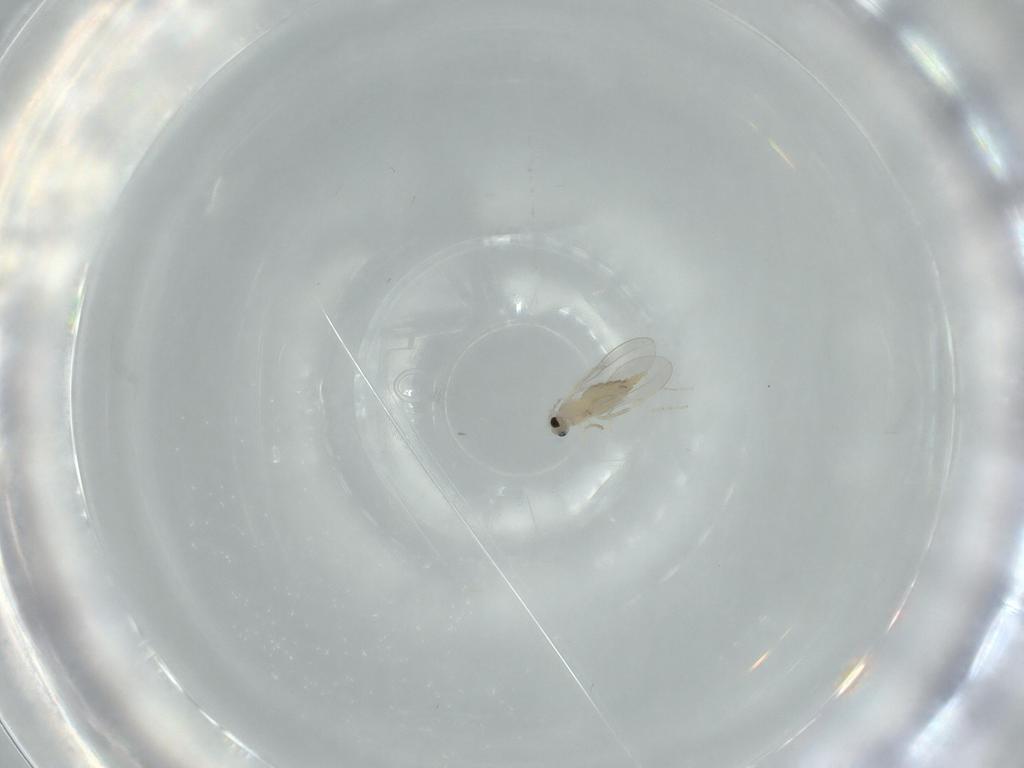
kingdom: Animalia
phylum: Arthropoda
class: Insecta
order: Diptera
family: Cecidomyiidae
